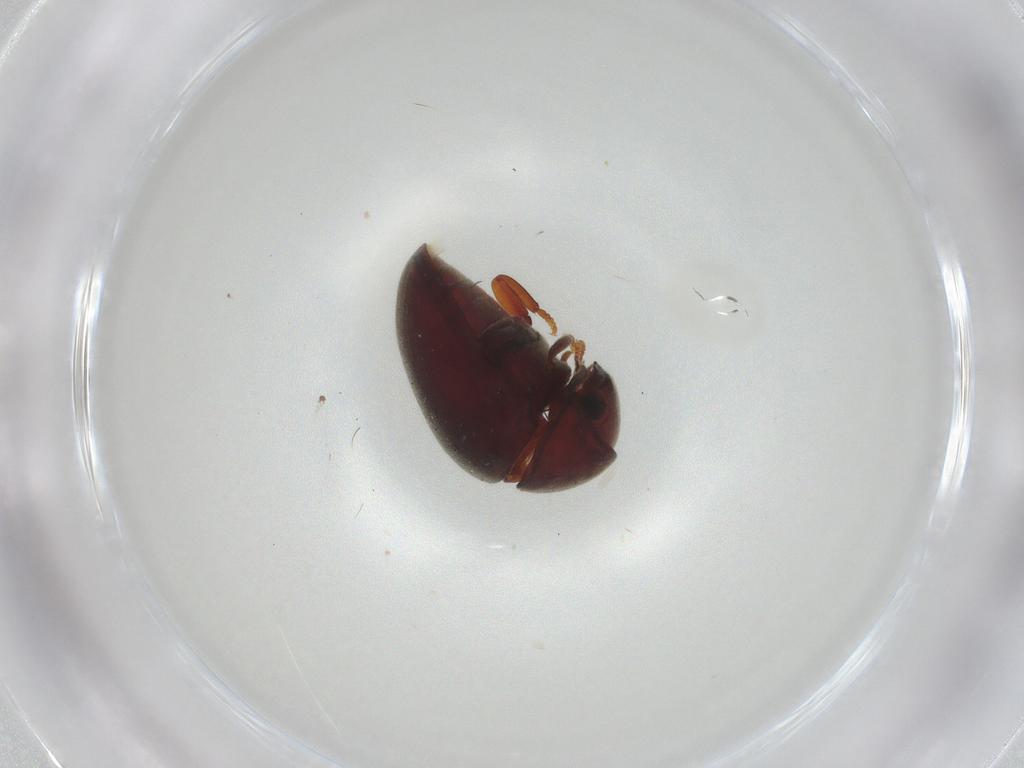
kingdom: Animalia
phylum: Arthropoda
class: Insecta
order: Coleoptera
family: Anobiidae
